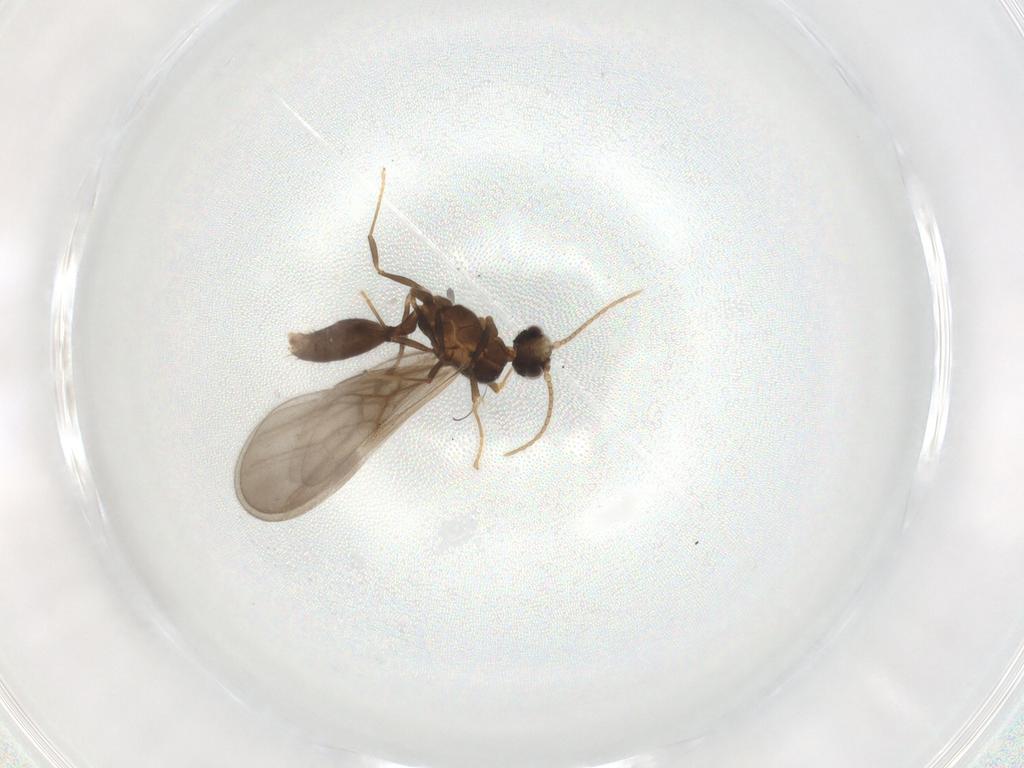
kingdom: Animalia
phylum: Arthropoda
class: Insecta
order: Hymenoptera
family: Formicidae
